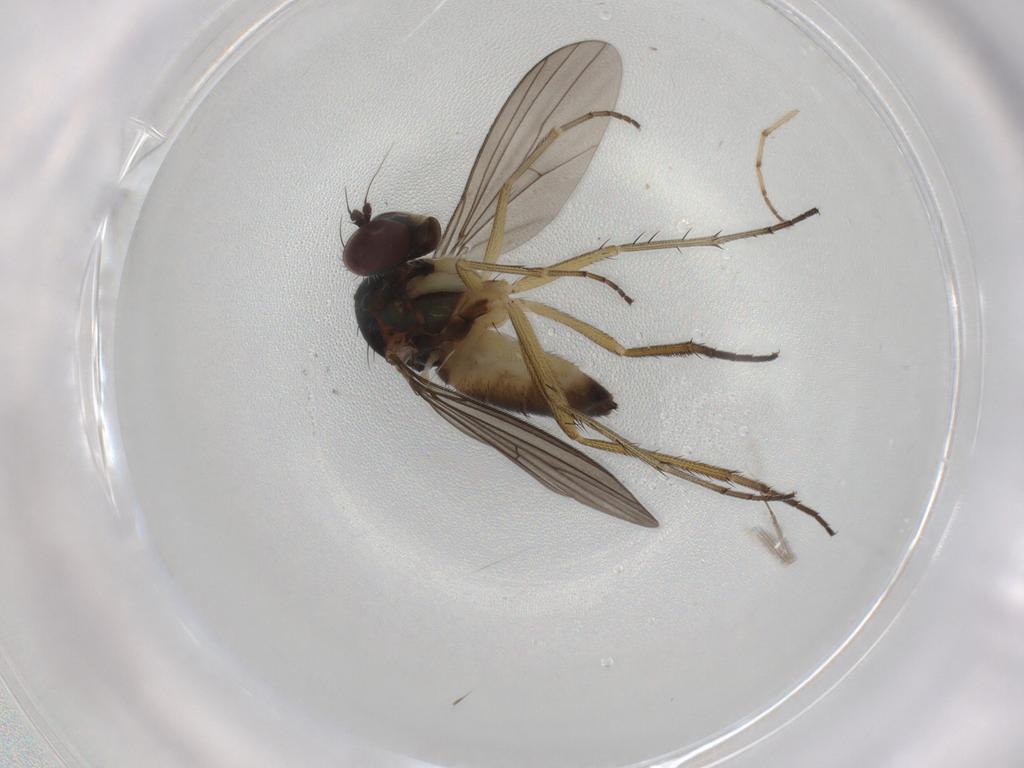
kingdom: Animalia
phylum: Arthropoda
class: Insecta
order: Diptera
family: Dolichopodidae
